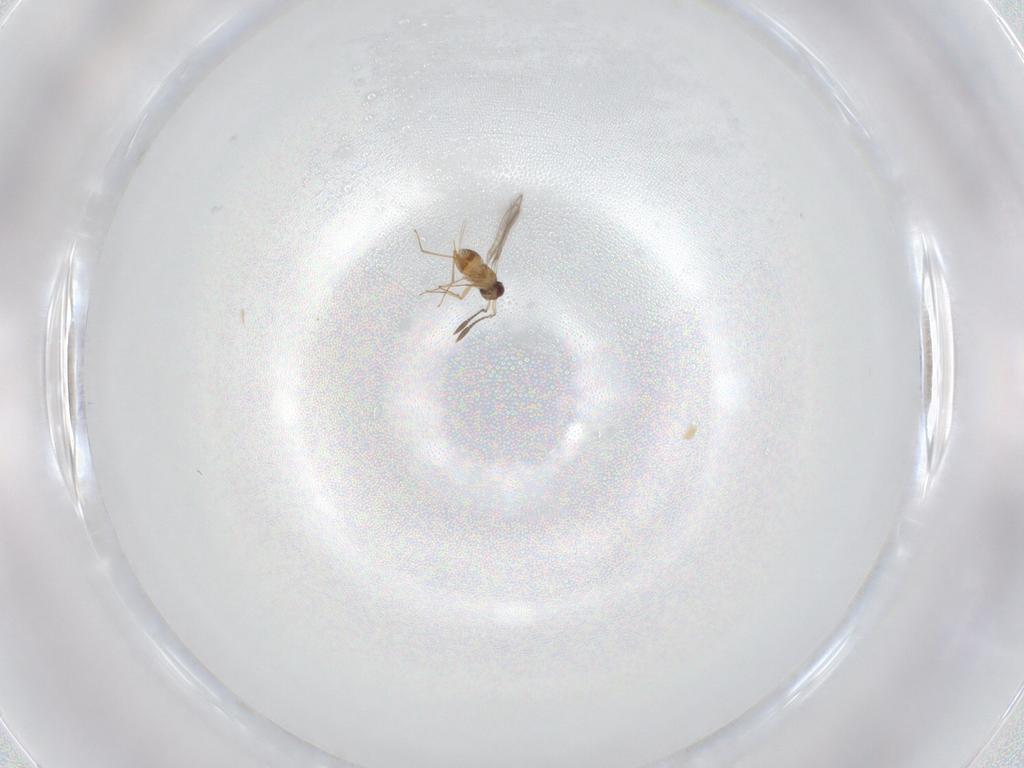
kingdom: Animalia
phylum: Arthropoda
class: Insecta
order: Hymenoptera
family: Mymaridae
